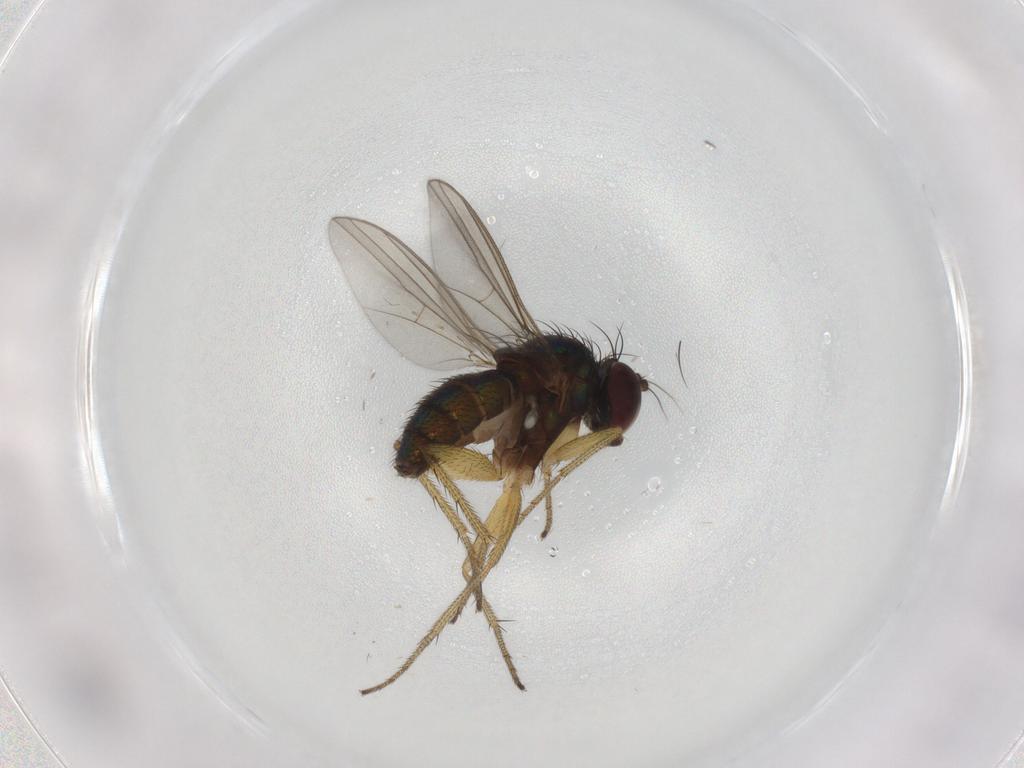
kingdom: Animalia
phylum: Arthropoda
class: Insecta
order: Diptera
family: Dolichopodidae
